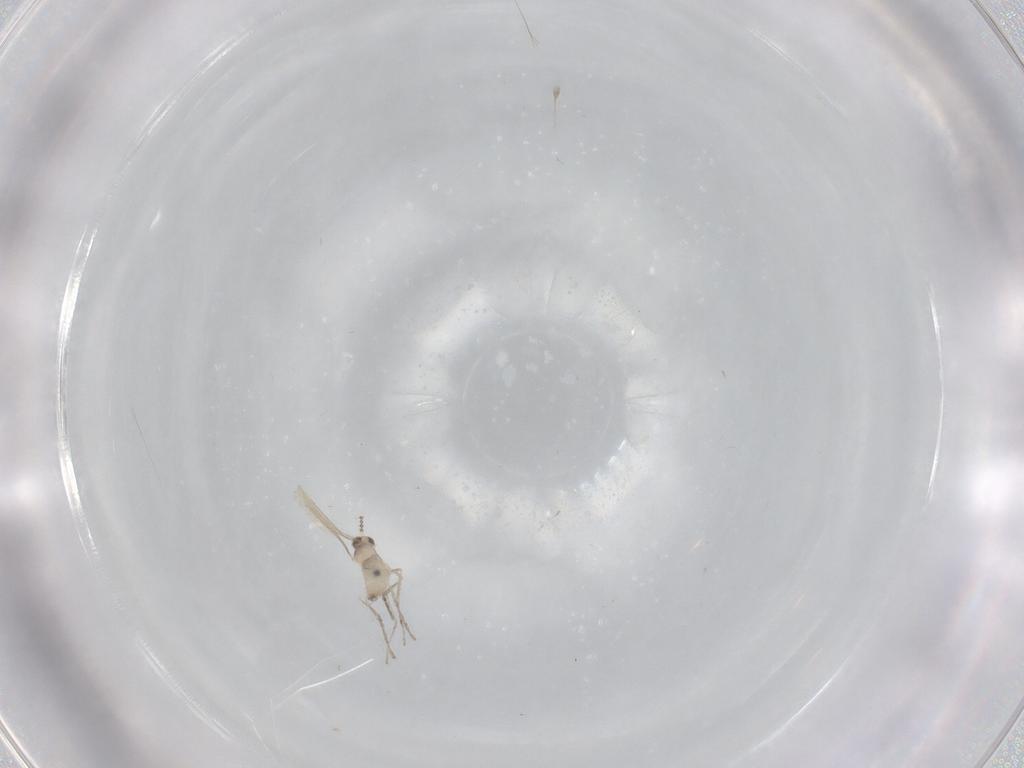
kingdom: Animalia
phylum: Arthropoda
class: Insecta
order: Diptera
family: Cecidomyiidae
